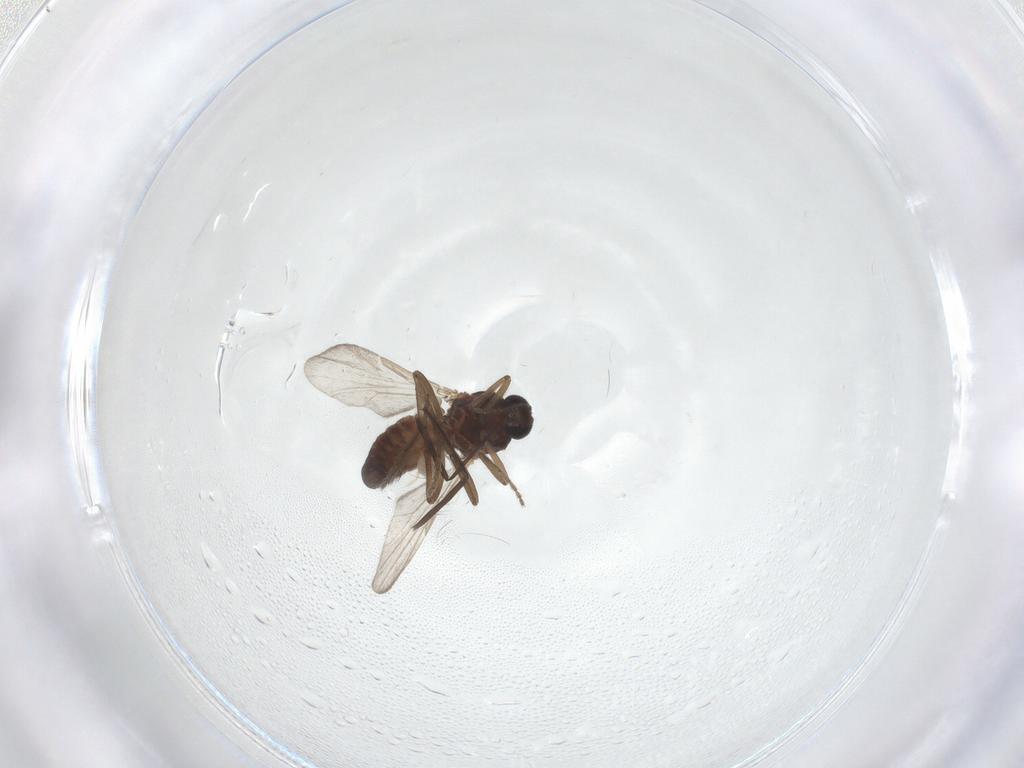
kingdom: Animalia
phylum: Arthropoda
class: Insecta
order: Diptera
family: Ceratopogonidae
